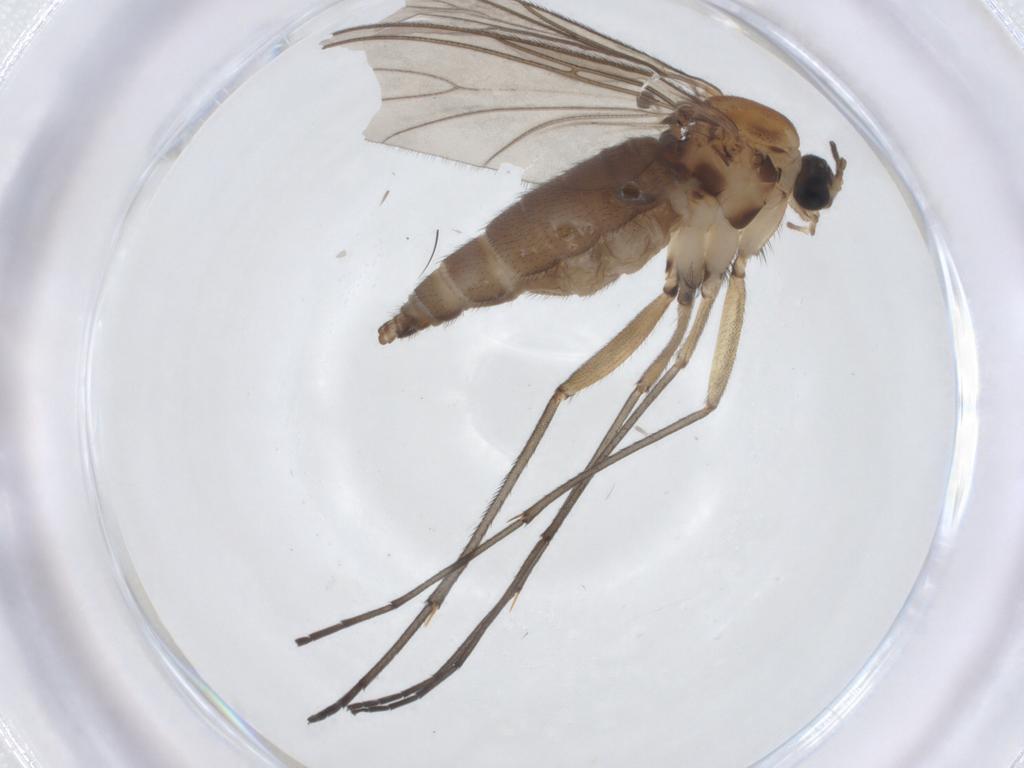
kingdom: Animalia
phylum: Arthropoda
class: Insecta
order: Diptera
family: Sciaridae
